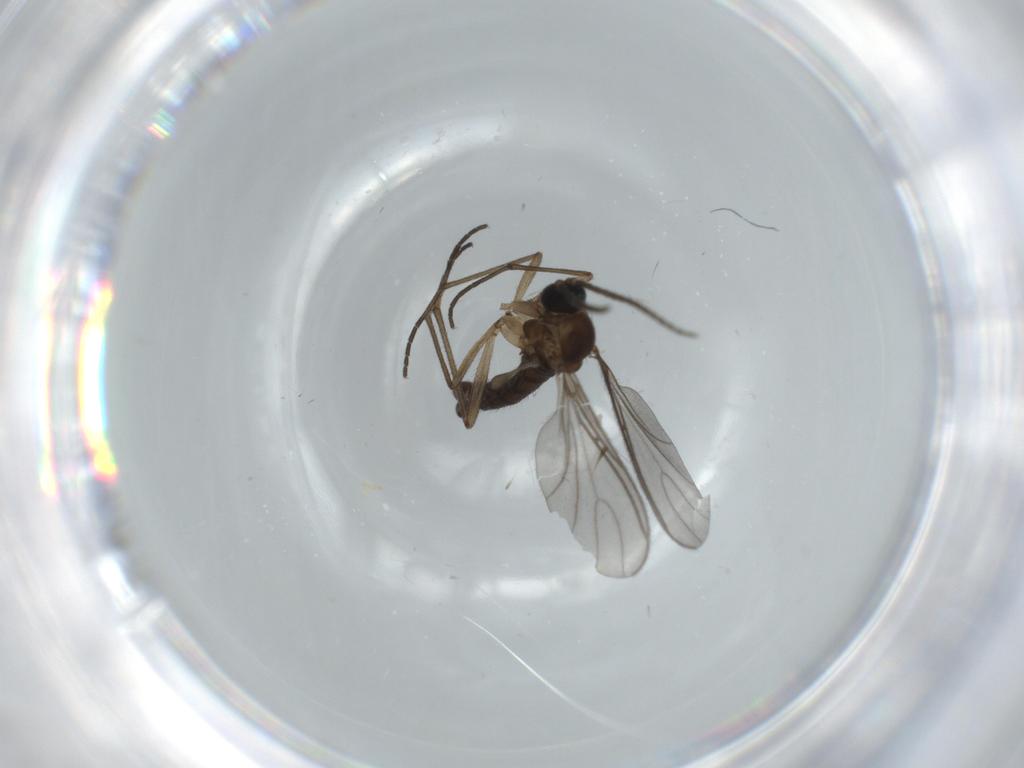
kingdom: Animalia
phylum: Arthropoda
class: Insecta
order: Diptera
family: Sciaridae
